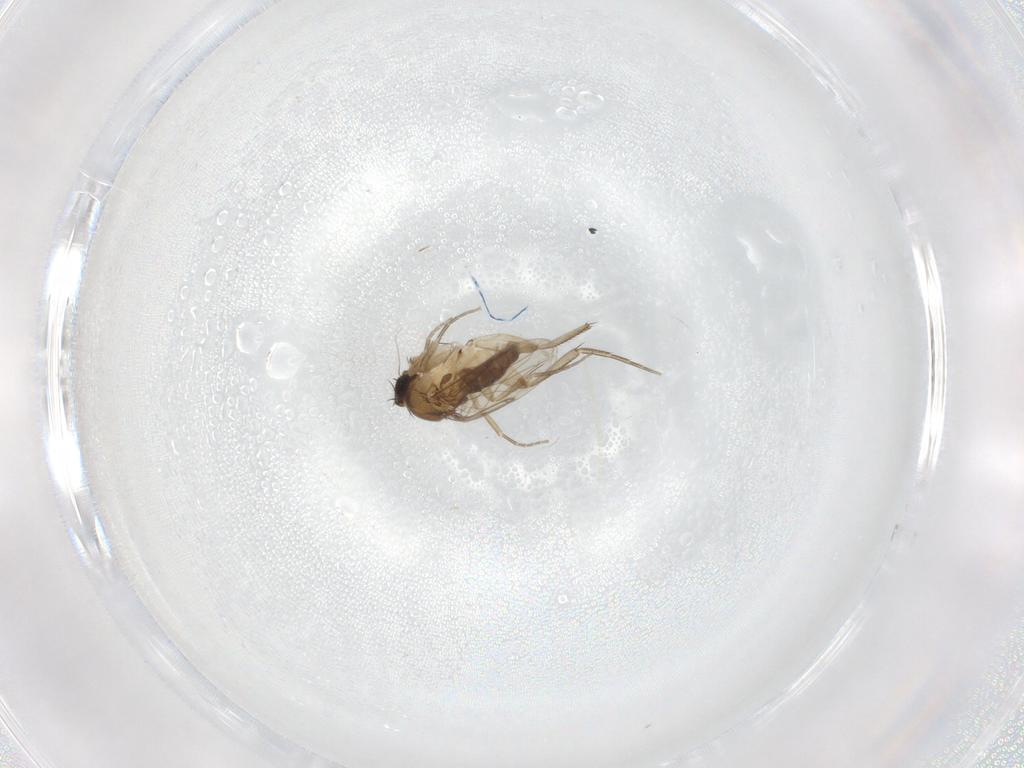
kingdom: Animalia
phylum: Arthropoda
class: Insecta
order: Diptera
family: Phoridae
